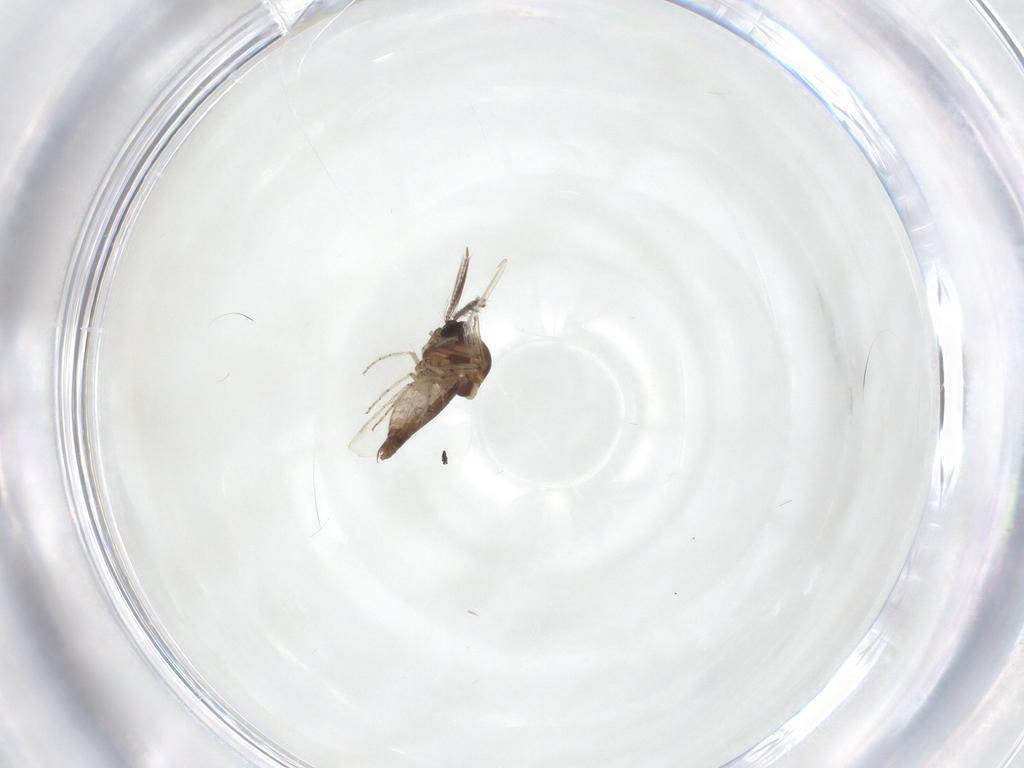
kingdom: Animalia
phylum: Arthropoda
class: Insecta
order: Diptera
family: Ceratopogonidae
